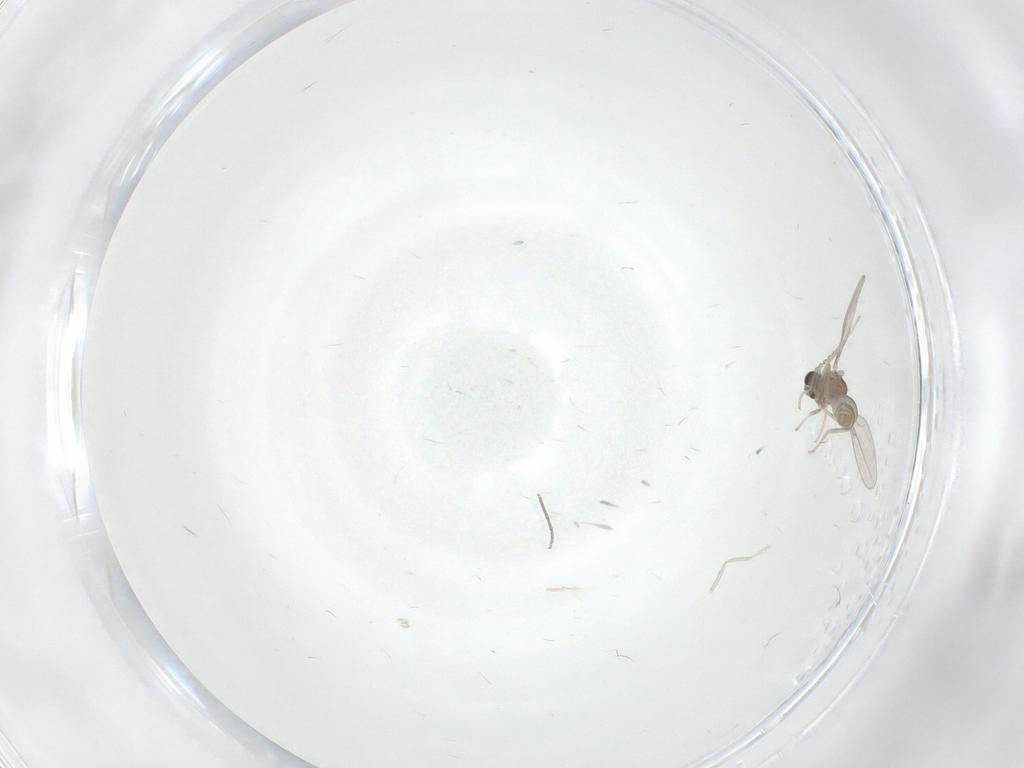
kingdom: Animalia
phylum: Arthropoda
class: Insecta
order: Diptera
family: Cecidomyiidae
